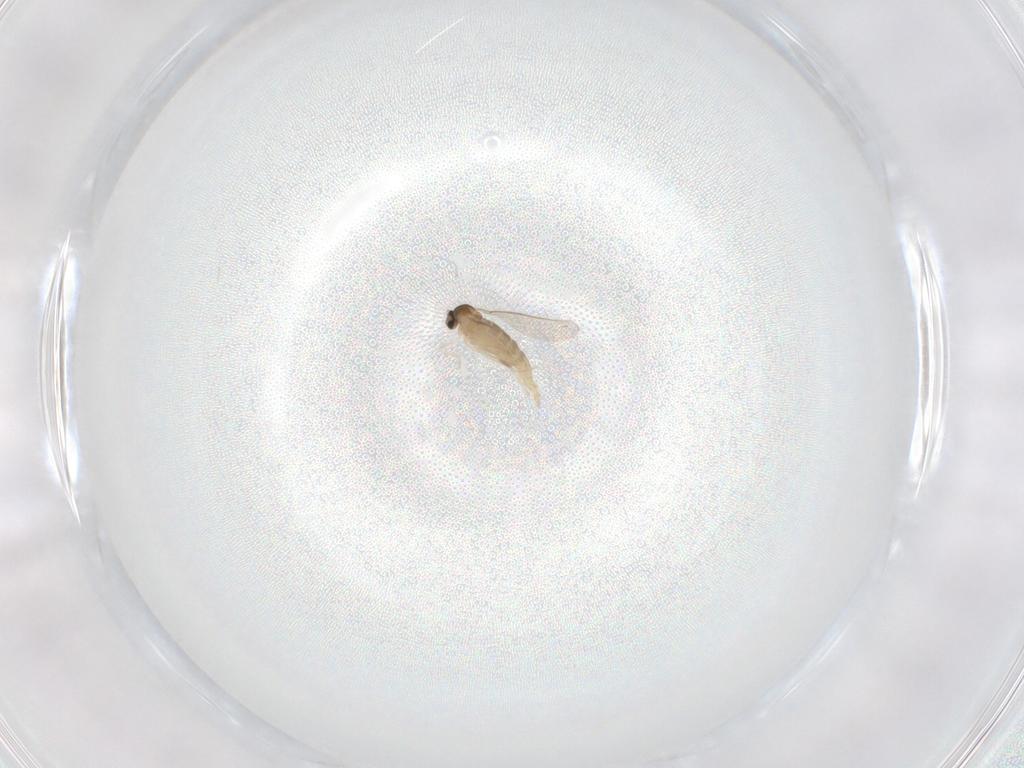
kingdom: Animalia
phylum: Arthropoda
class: Insecta
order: Diptera
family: Cecidomyiidae
